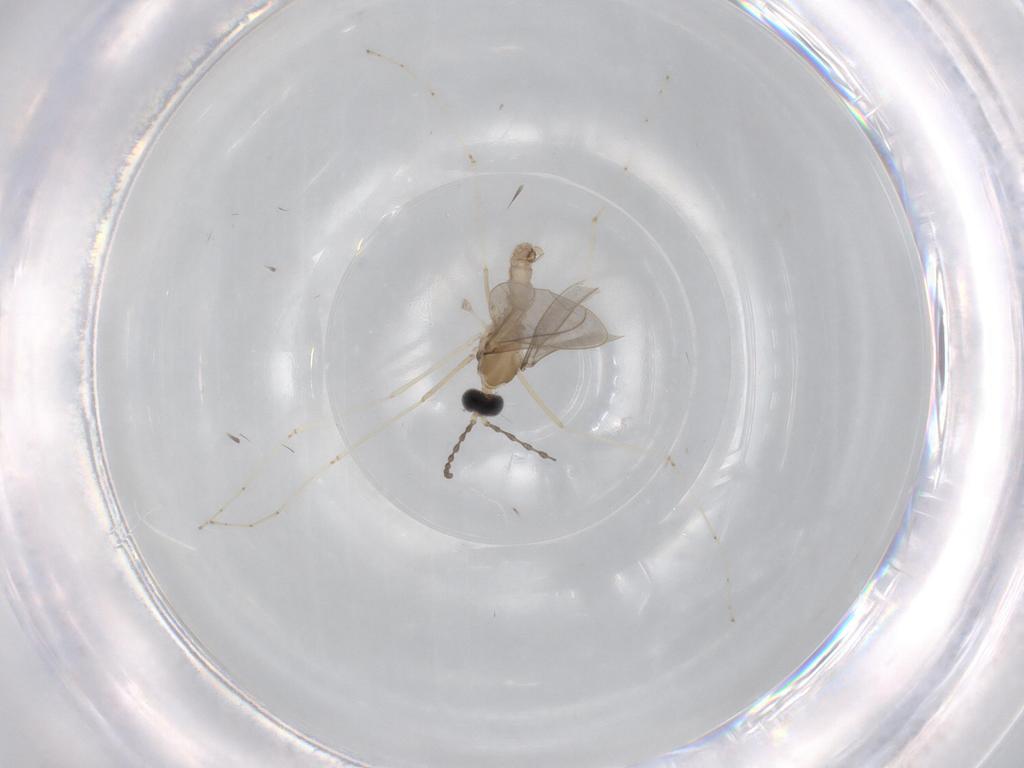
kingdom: Animalia
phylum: Arthropoda
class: Insecta
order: Diptera
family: Cecidomyiidae
